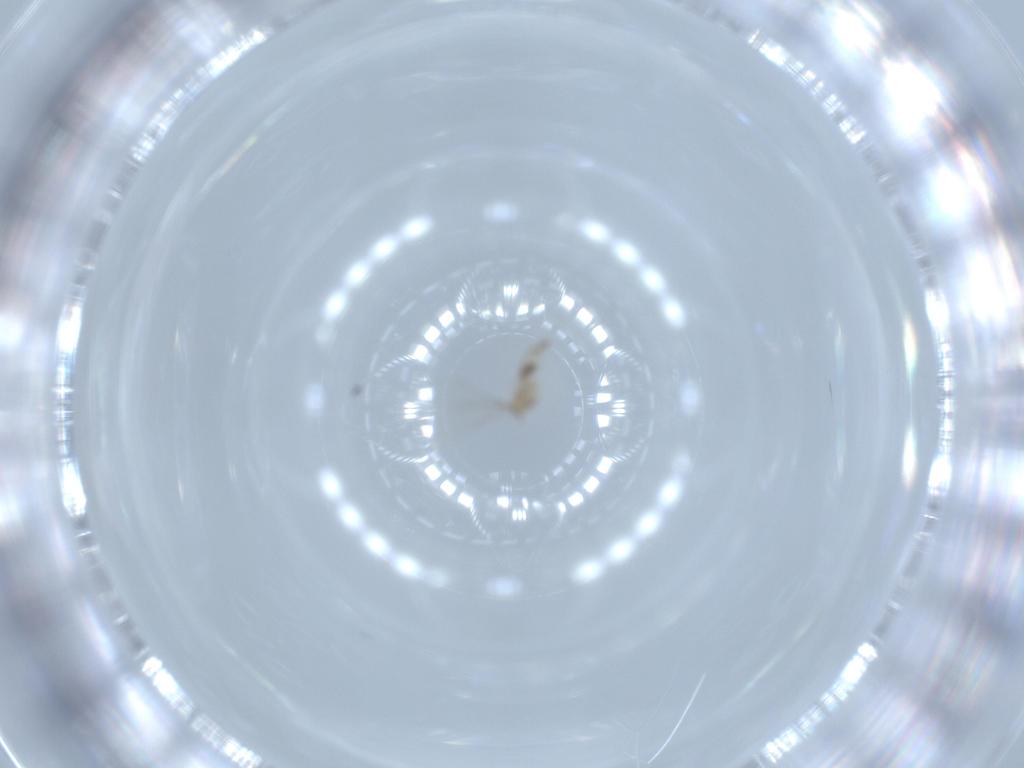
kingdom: Animalia
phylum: Arthropoda
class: Insecta
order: Diptera
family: Cecidomyiidae
